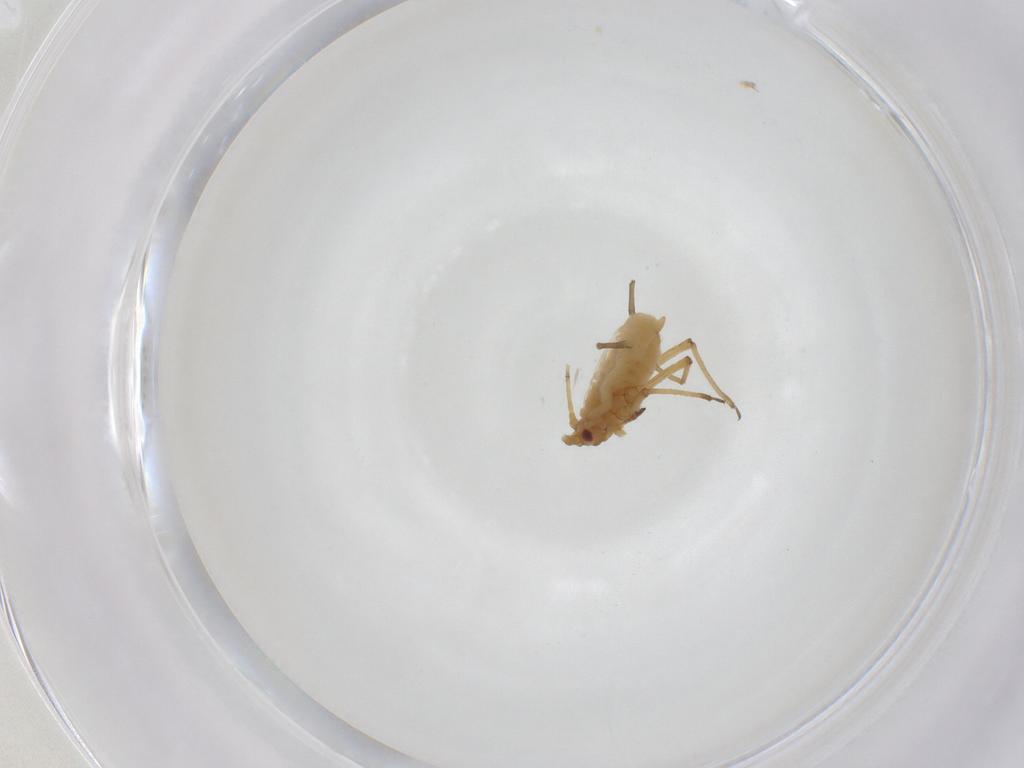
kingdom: Animalia
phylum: Arthropoda
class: Insecta
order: Hemiptera
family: Aphididae
